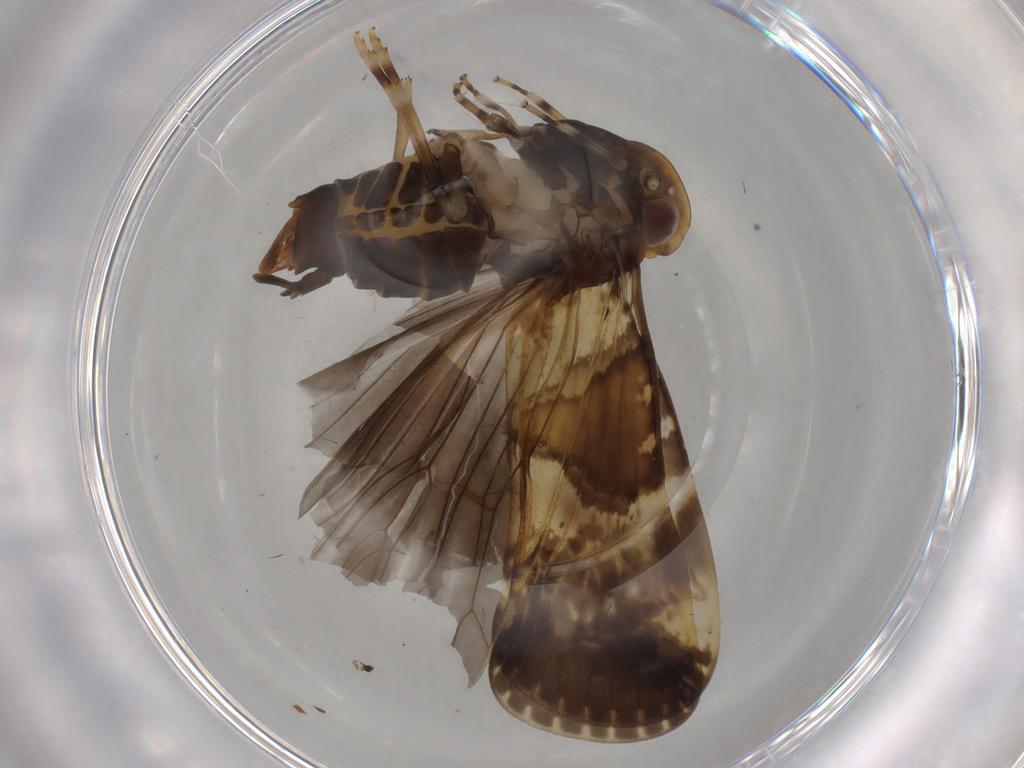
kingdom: Animalia
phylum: Arthropoda
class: Insecta
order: Hemiptera
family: Cixiidae
